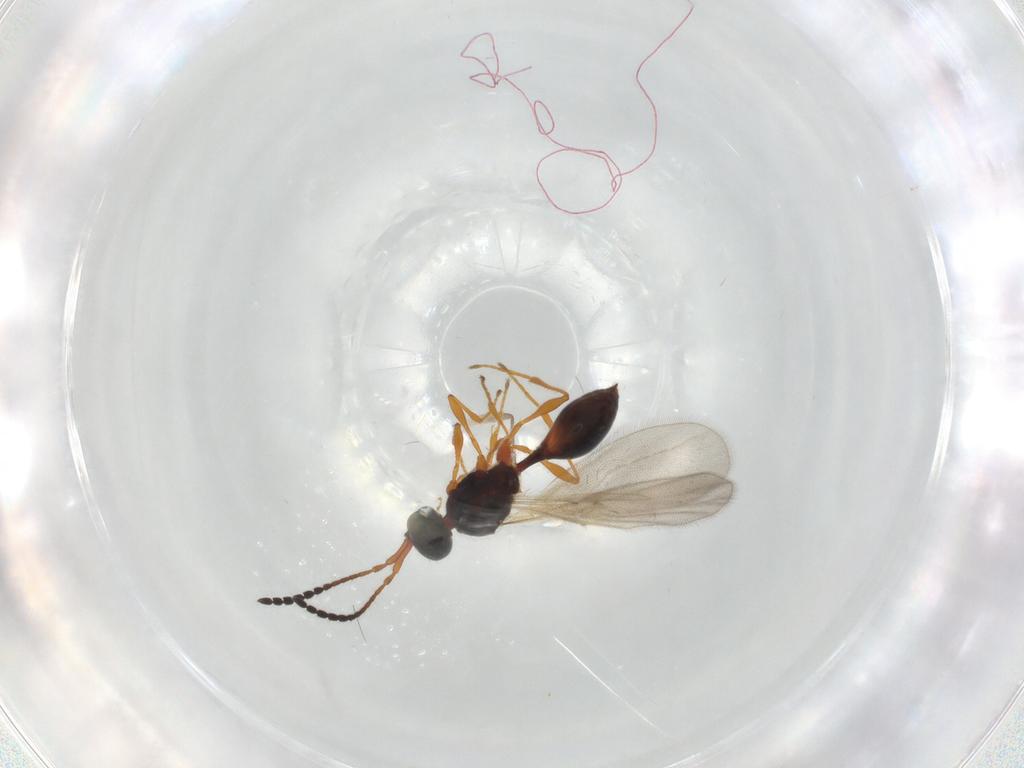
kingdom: Animalia
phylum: Arthropoda
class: Insecta
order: Hymenoptera
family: Diapriidae
